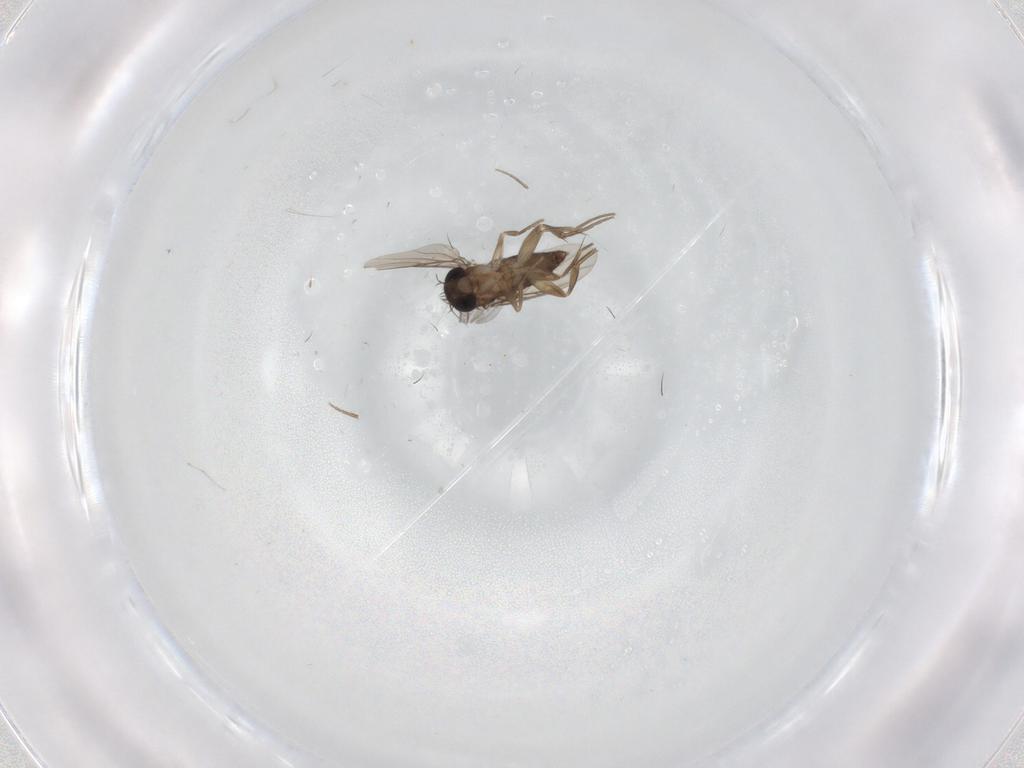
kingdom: Animalia
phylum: Arthropoda
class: Insecta
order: Diptera
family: Phoridae
